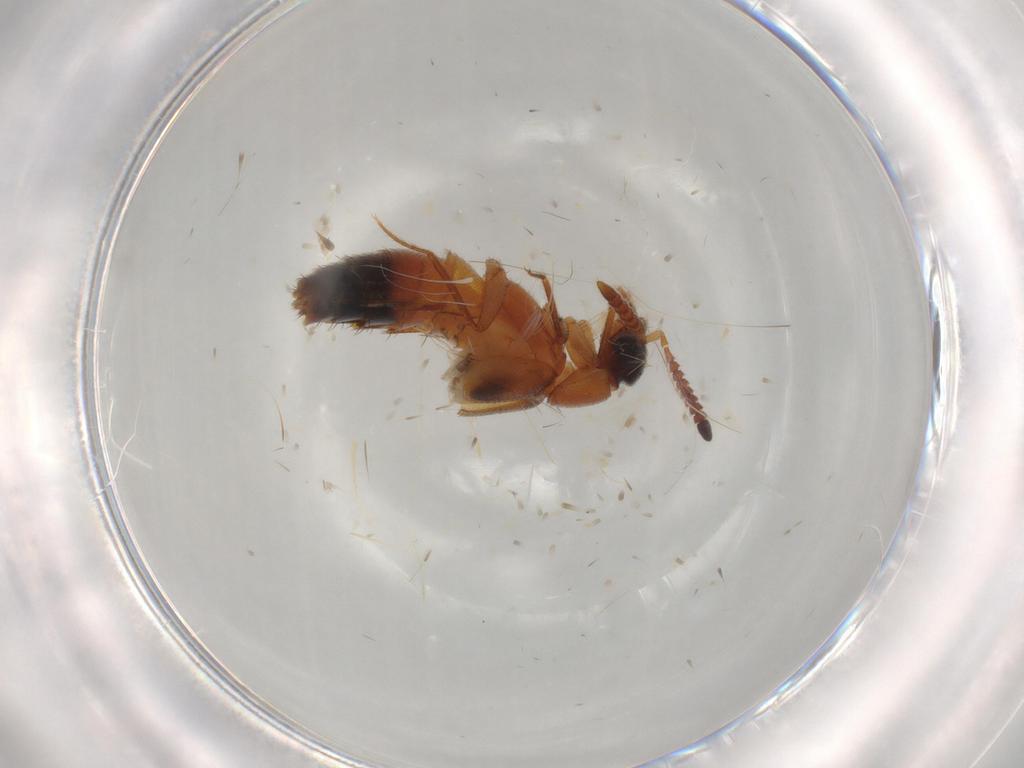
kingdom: Animalia
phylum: Arthropoda
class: Insecta
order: Coleoptera
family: Staphylinidae
